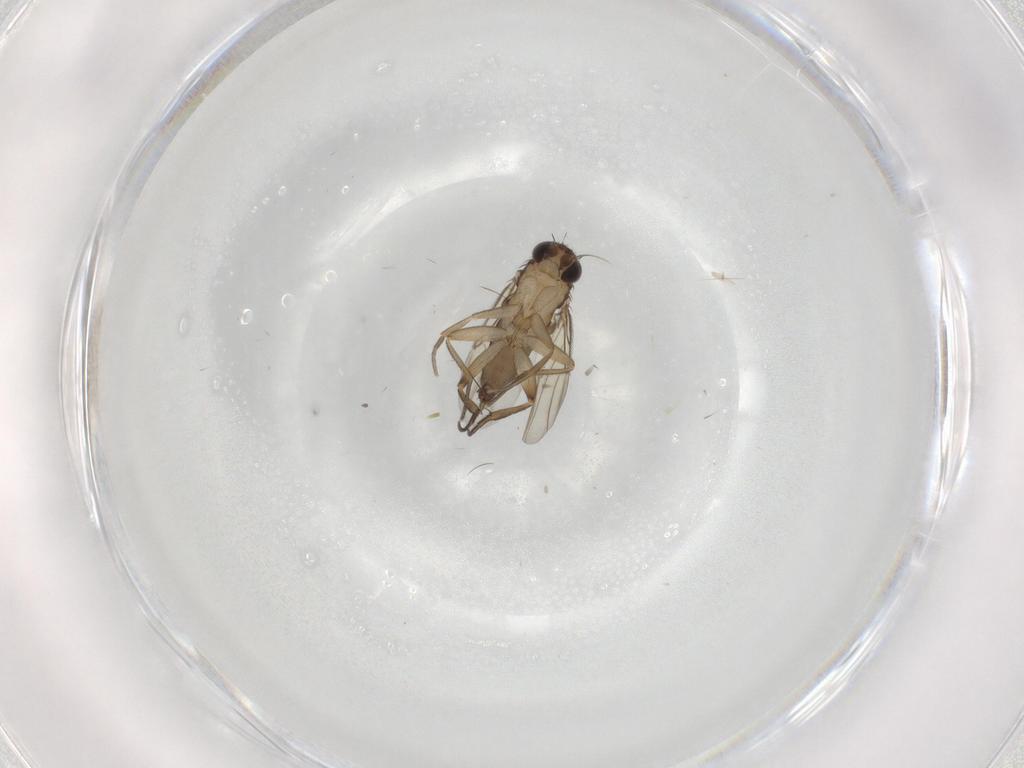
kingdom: Animalia
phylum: Arthropoda
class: Insecta
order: Diptera
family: Phoridae
